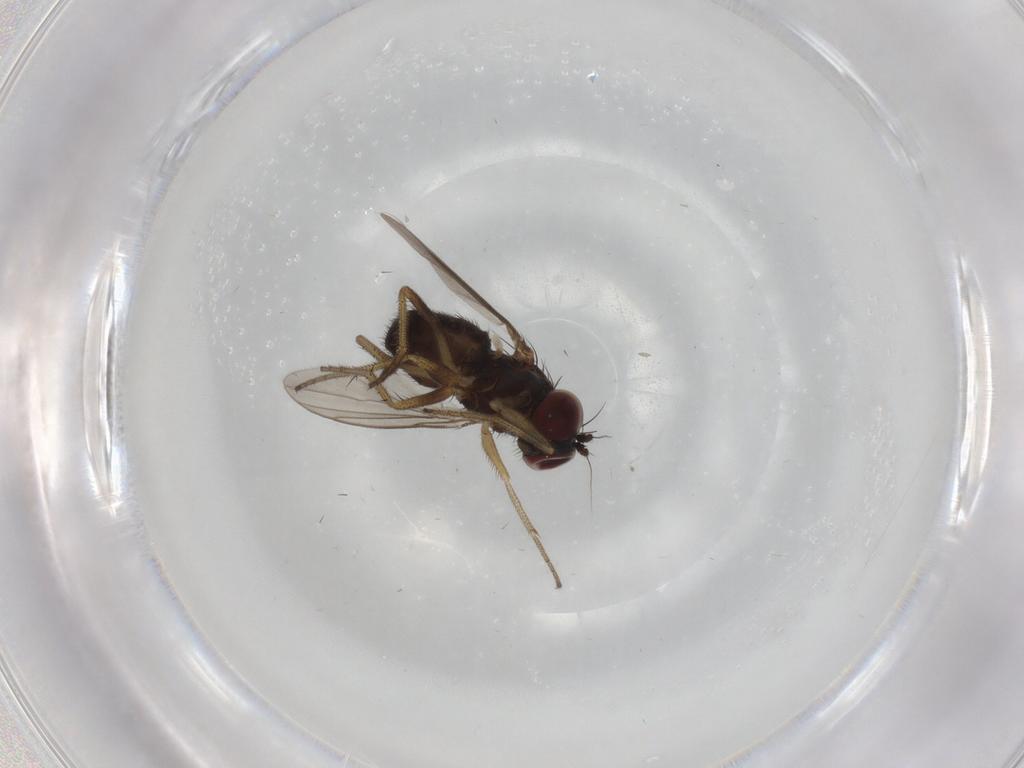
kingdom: Animalia
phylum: Arthropoda
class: Insecta
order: Diptera
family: Dolichopodidae
